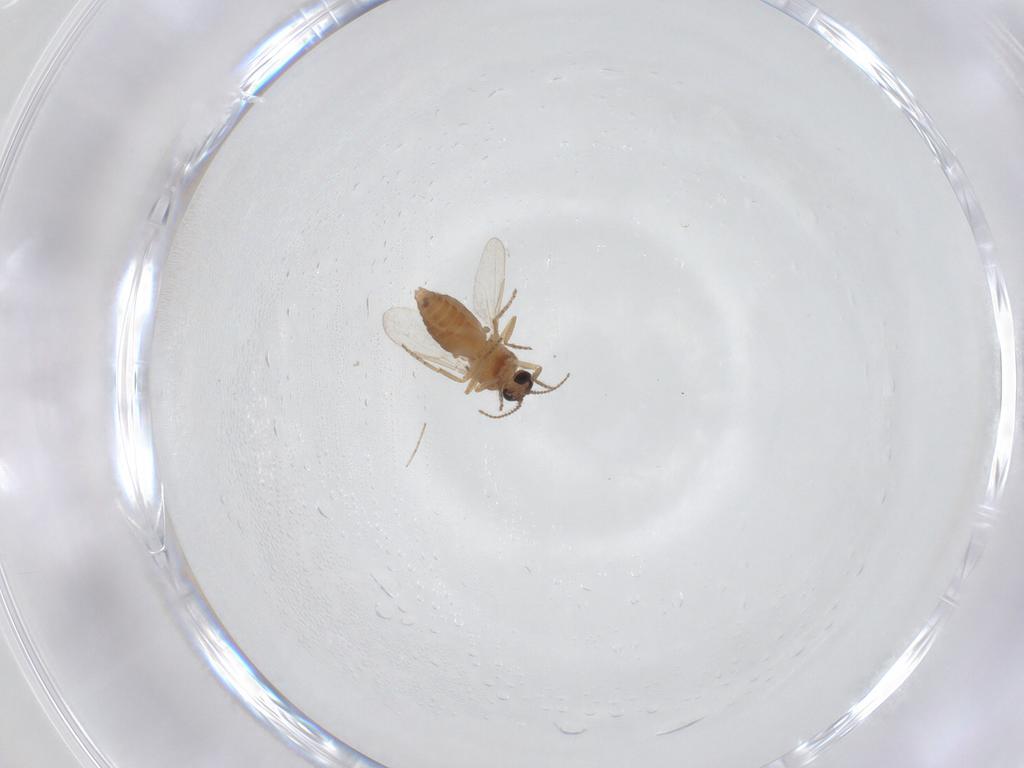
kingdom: Animalia
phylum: Arthropoda
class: Insecta
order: Diptera
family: Ceratopogonidae
